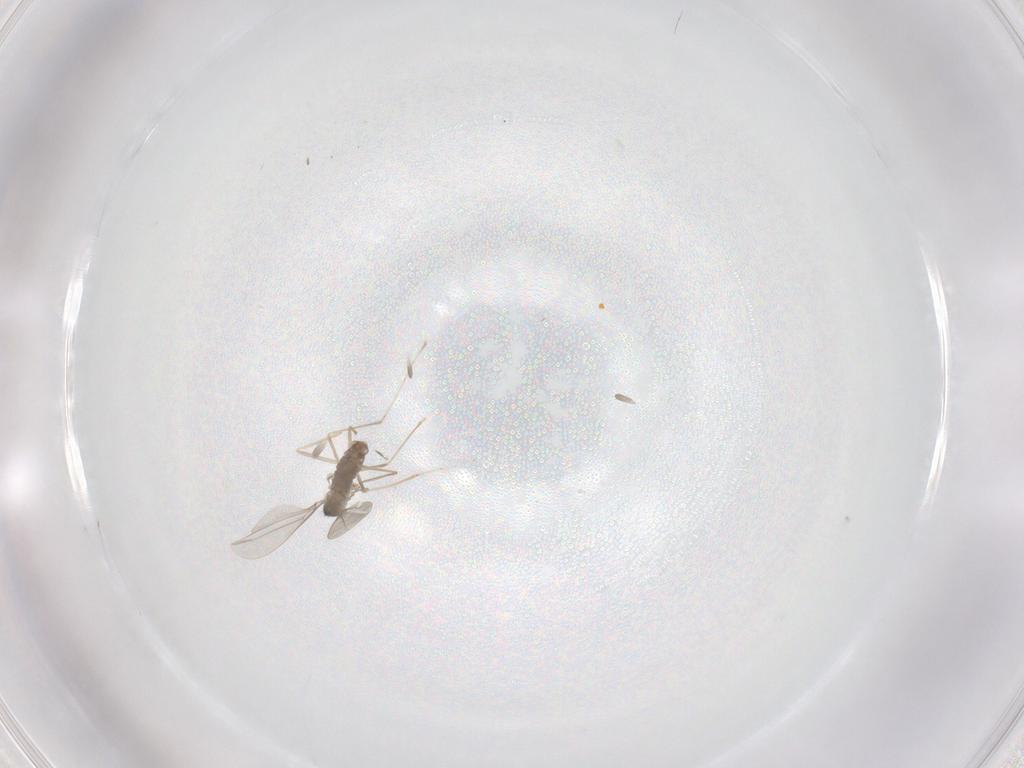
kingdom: Animalia
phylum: Arthropoda
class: Insecta
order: Diptera
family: Cecidomyiidae
